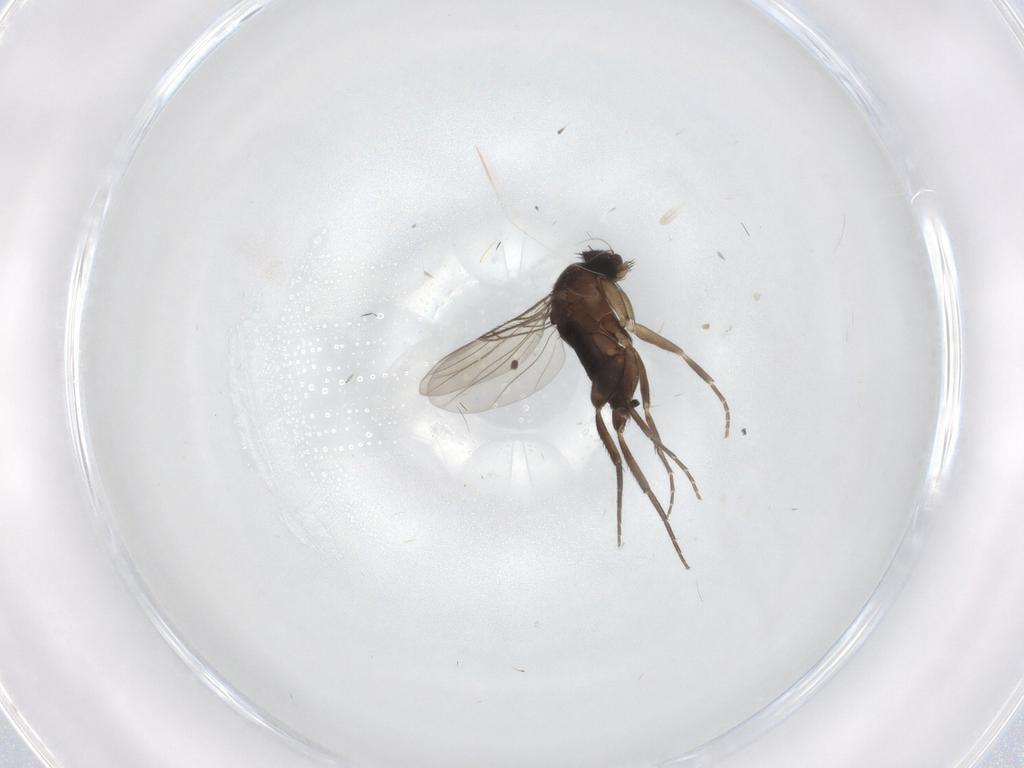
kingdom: Animalia
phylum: Arthropoda
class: Insecta
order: Diptera
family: Phoridae
